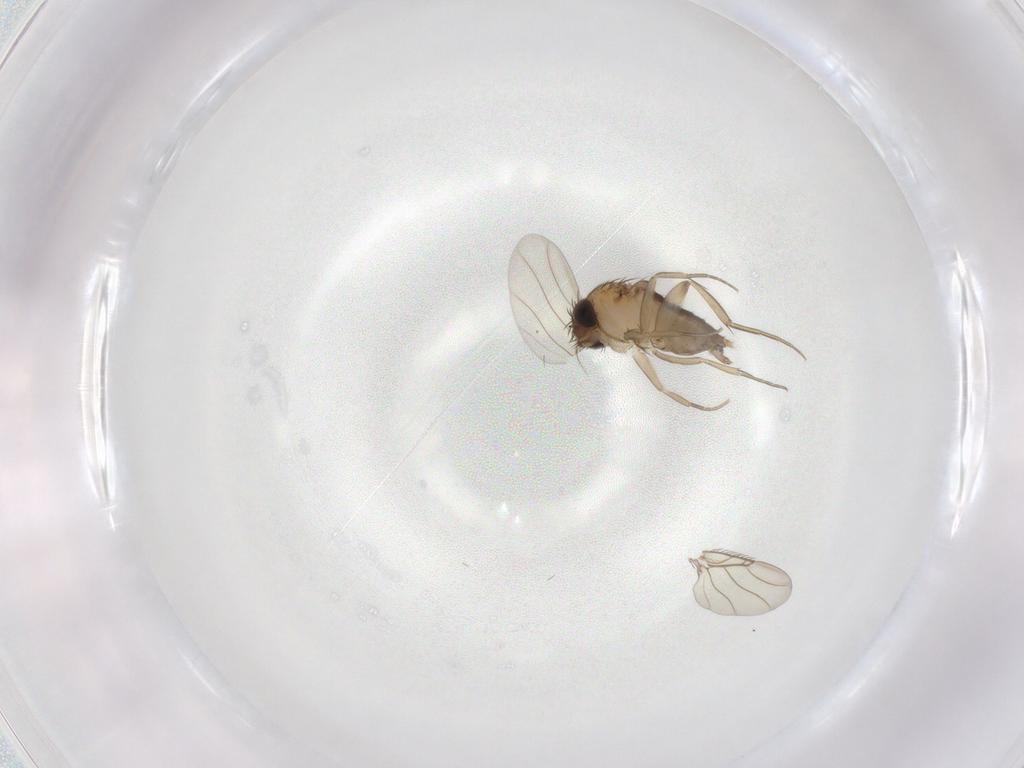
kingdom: Animalia
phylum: Arthropoda
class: Insecta
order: Diptera
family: Phoridae
